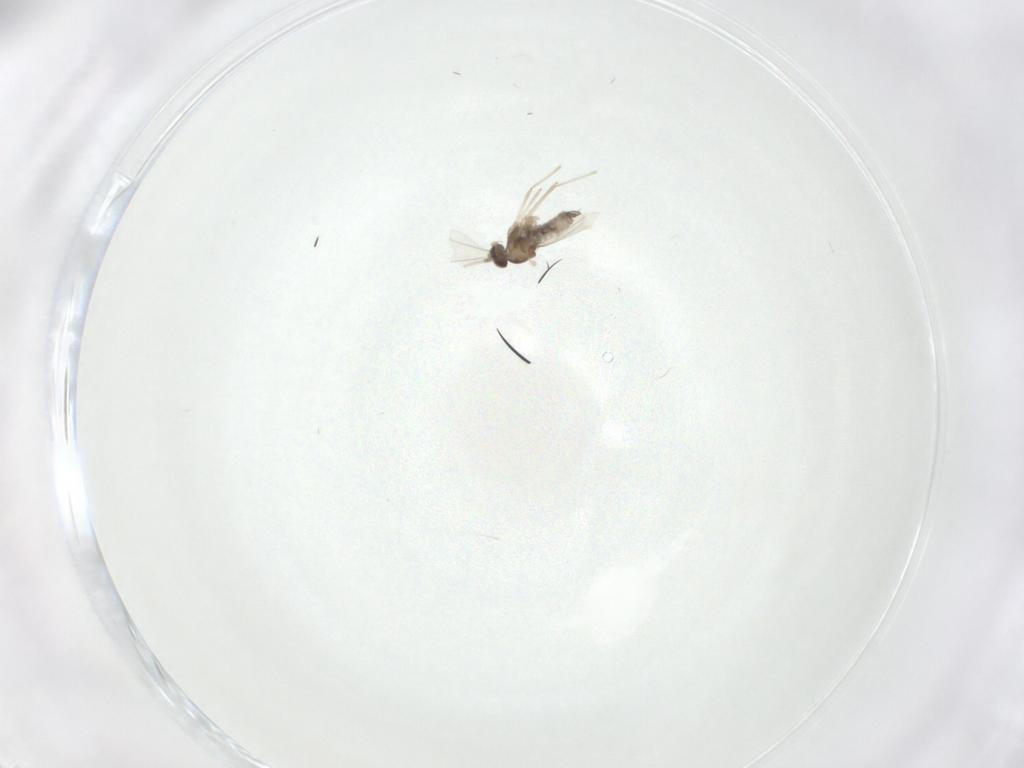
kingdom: Animalia
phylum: Arthropoda
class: Insecta
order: Diptera
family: Cecidomyiidae
